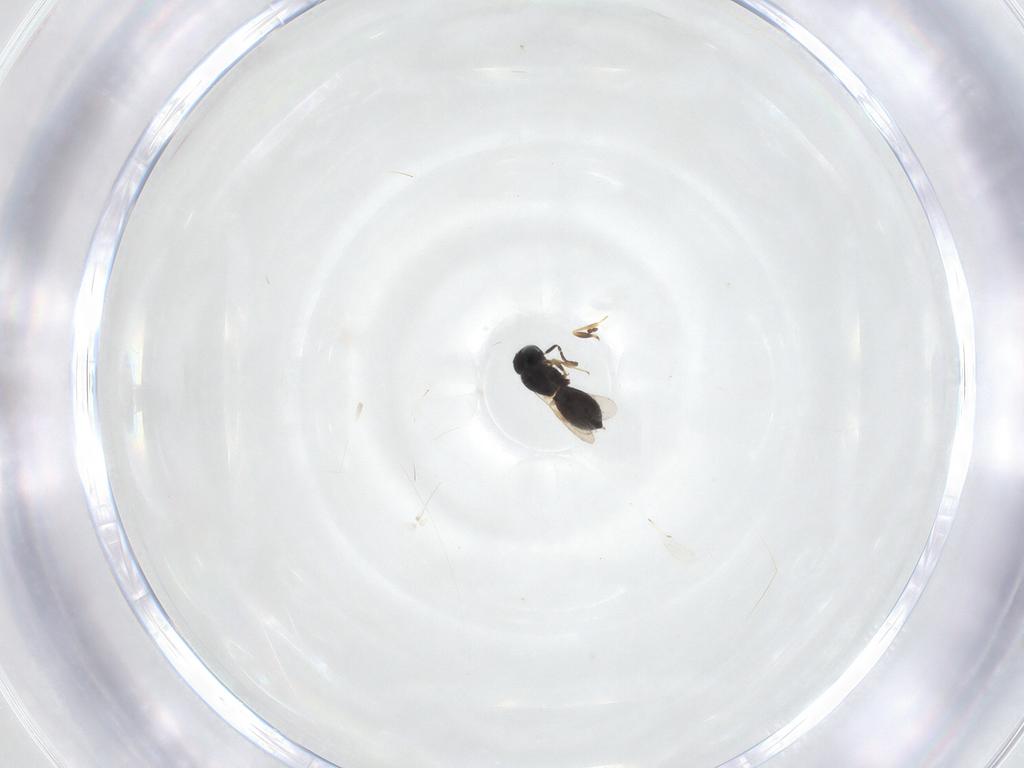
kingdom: Animalia
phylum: Arthropoda
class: Insecta
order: Hymenoptera
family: Scelionidae
